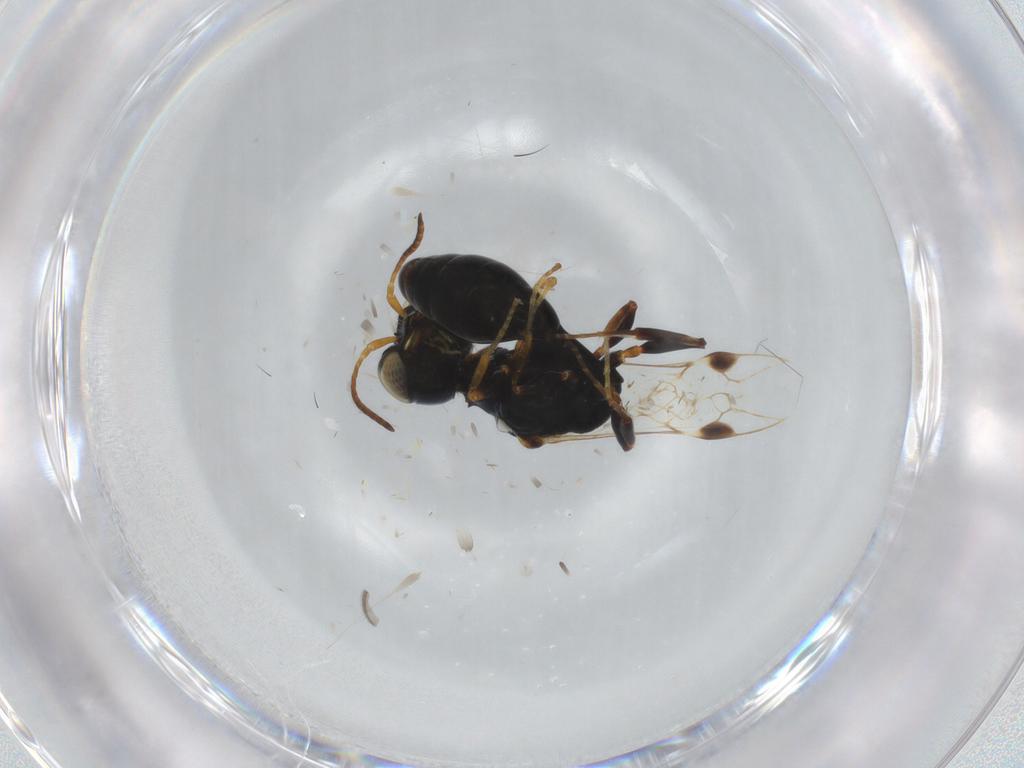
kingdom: Animalia
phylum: Arthropoda
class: Insecta
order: Hymenoptera
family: Crabronidae
